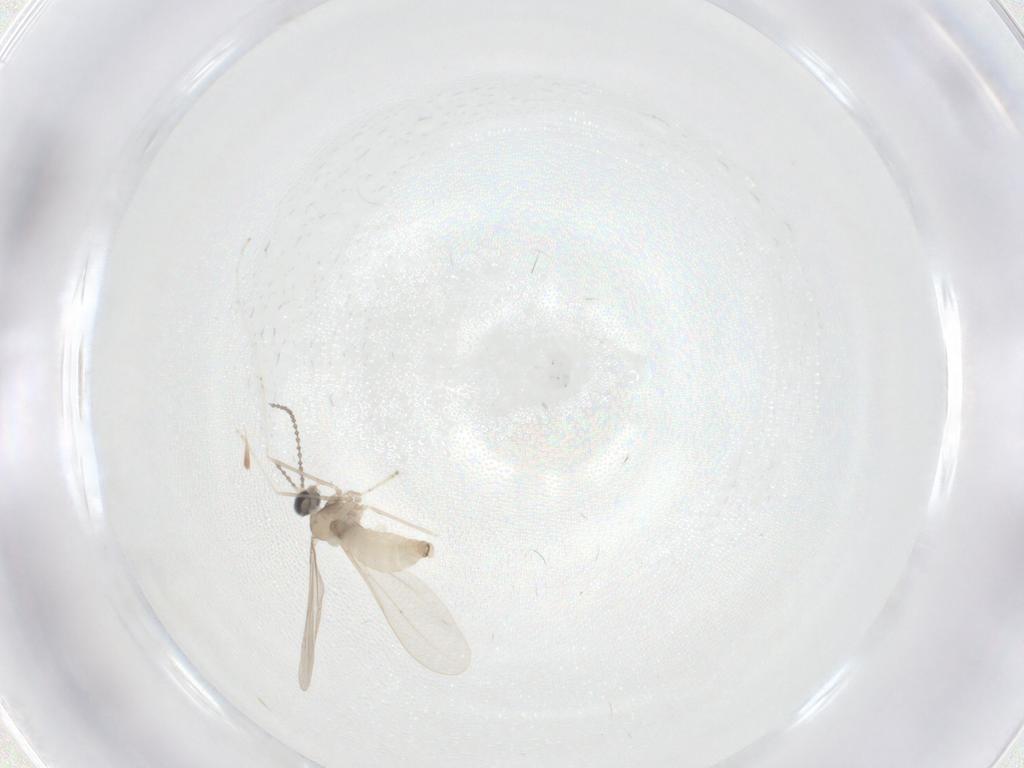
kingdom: Animalia
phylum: Arthropoda
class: Insecta
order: Diptera
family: Cecidomyiidae
